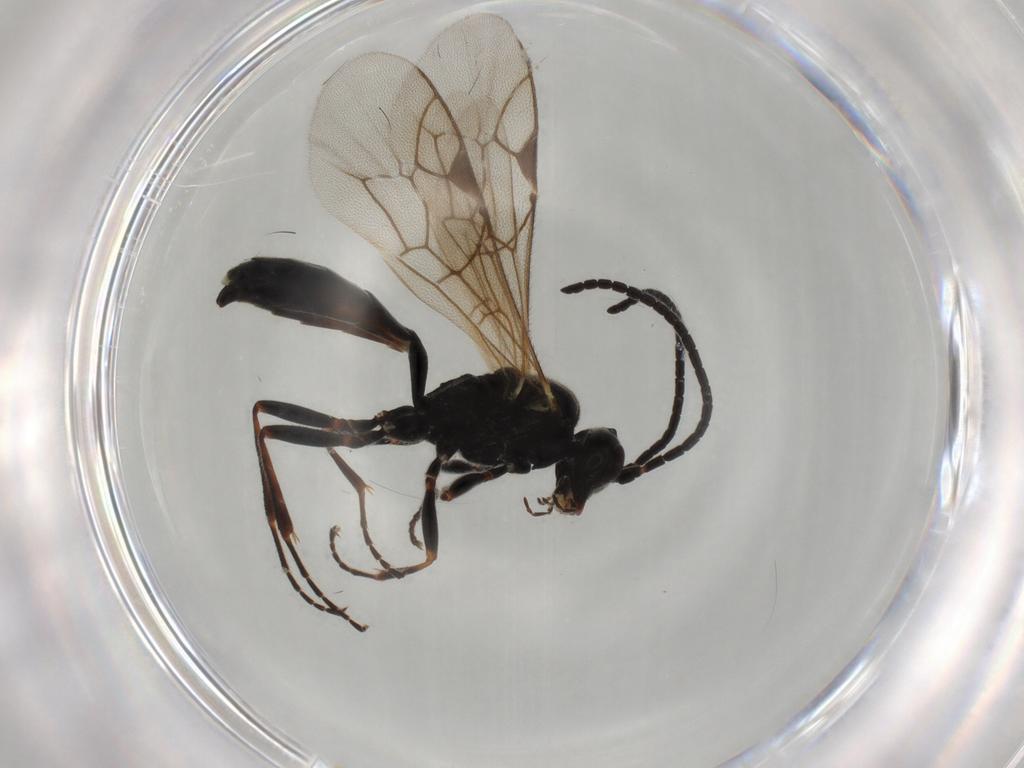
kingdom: Animalia
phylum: Arthropoda
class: Insecta
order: Hymenoptera
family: Ichneumonidae
